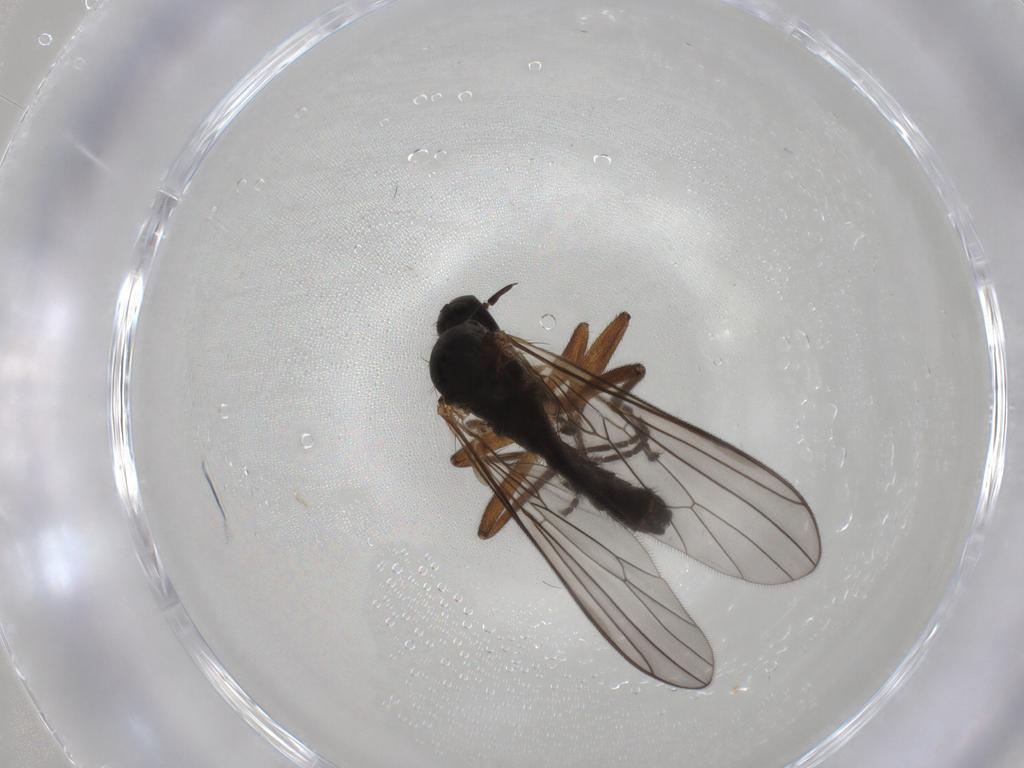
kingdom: Animalia
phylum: Arthropoda
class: Insecta
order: Diptera
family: Empididae
